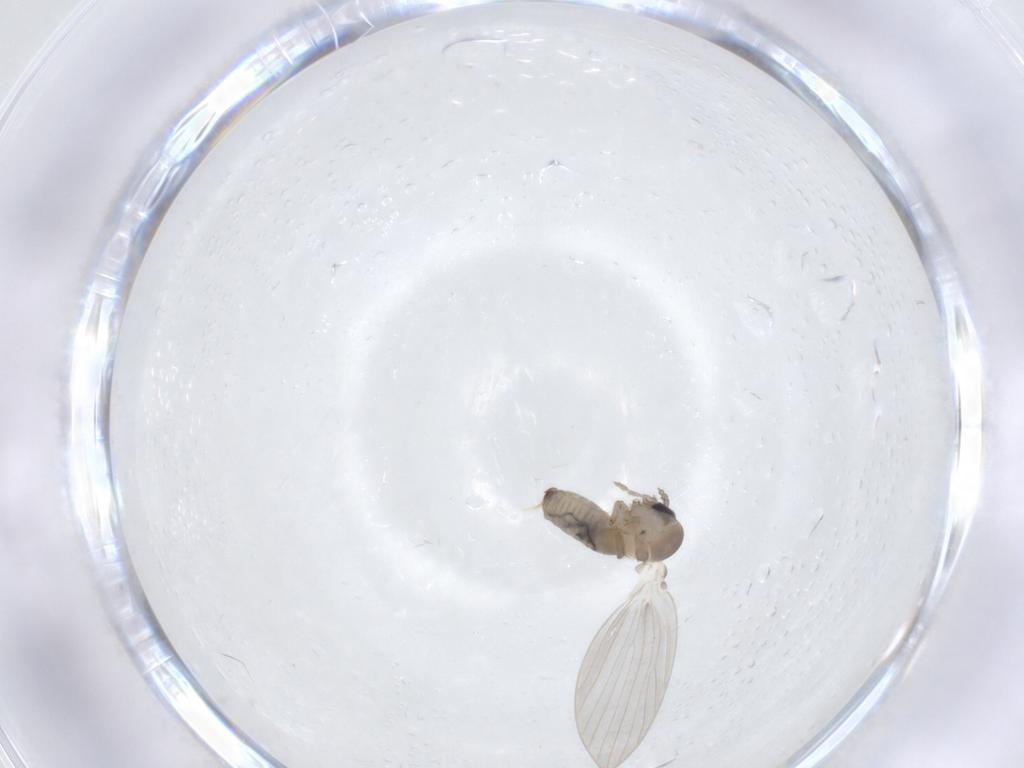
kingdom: Animalia
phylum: Arthropoda
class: Insecta
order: Diptera
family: Psychodidae
